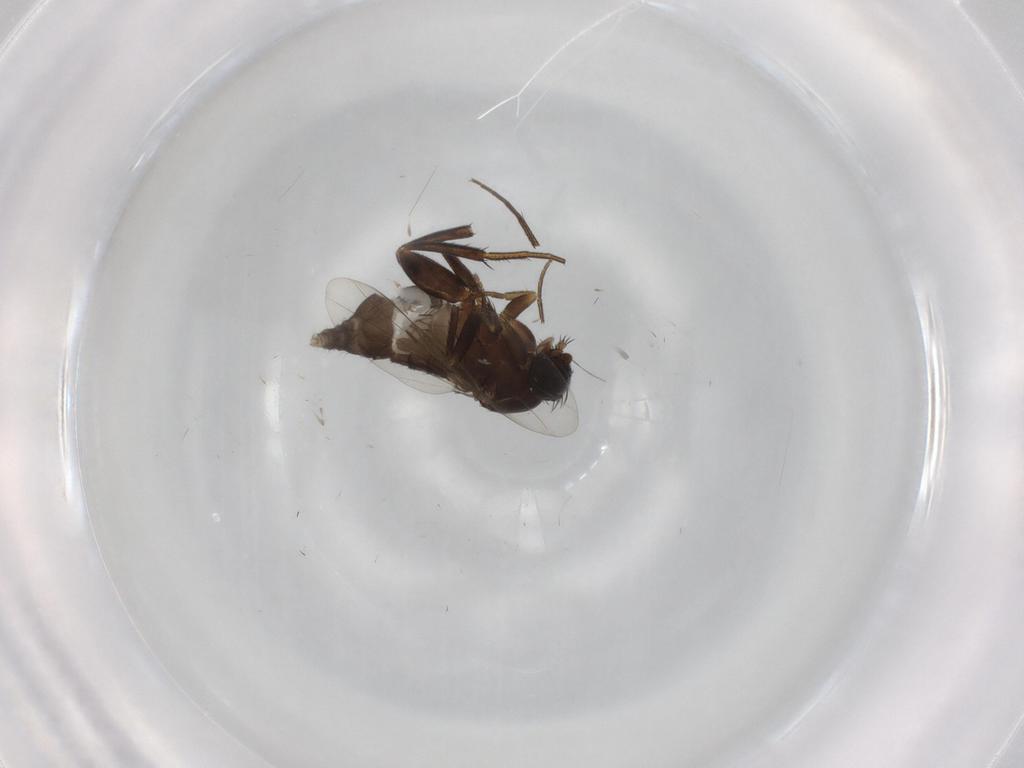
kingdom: Animalia
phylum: Arthropoda
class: Insecta
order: Diptera
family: Phoridae
